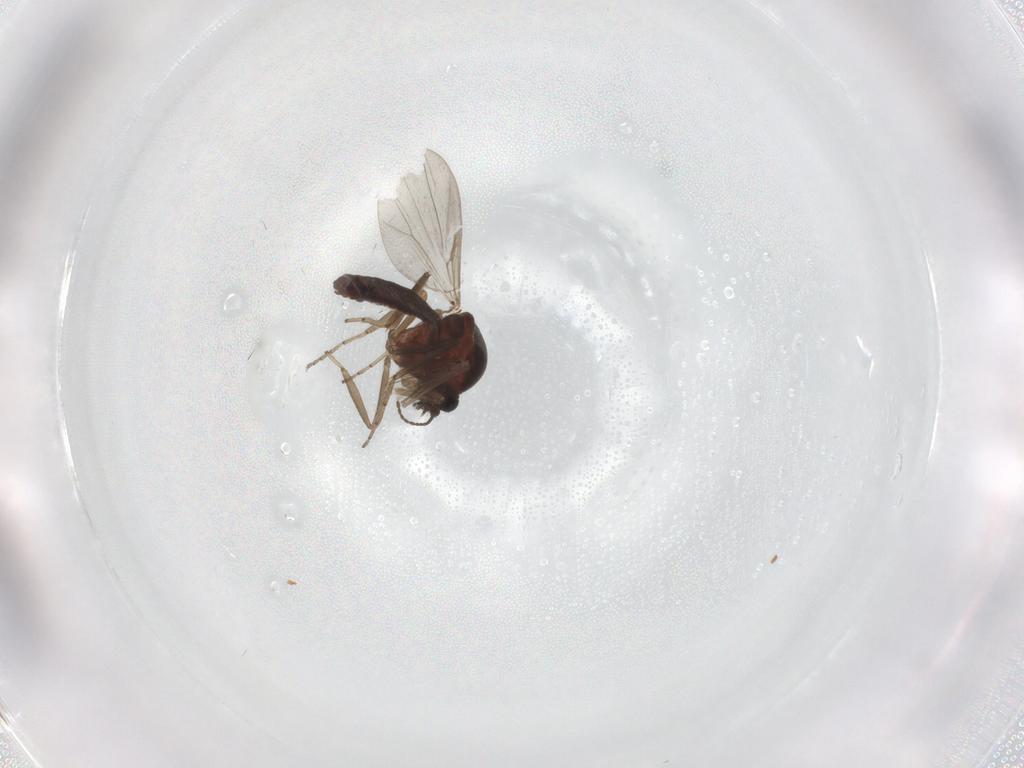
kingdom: Animalia
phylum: Arthropoda
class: Insecta
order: Diptera
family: Ceratopogonidae
